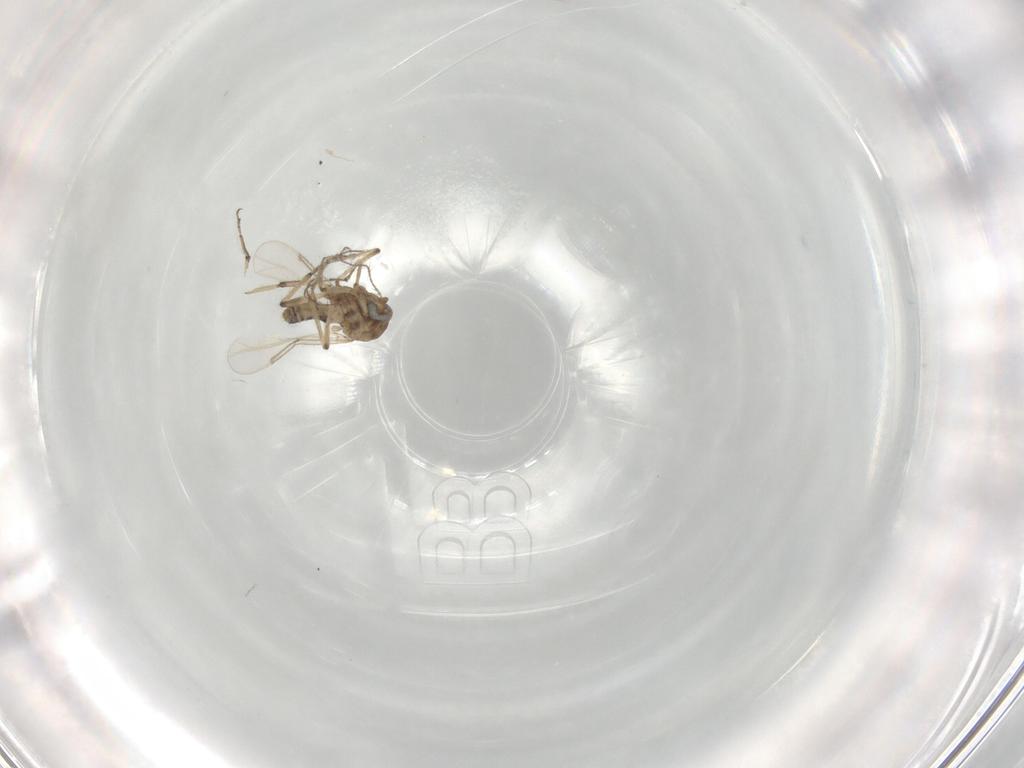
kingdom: Animalia
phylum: Arthropoda
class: Insecta
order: Diptera
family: Ceratopogonidae
